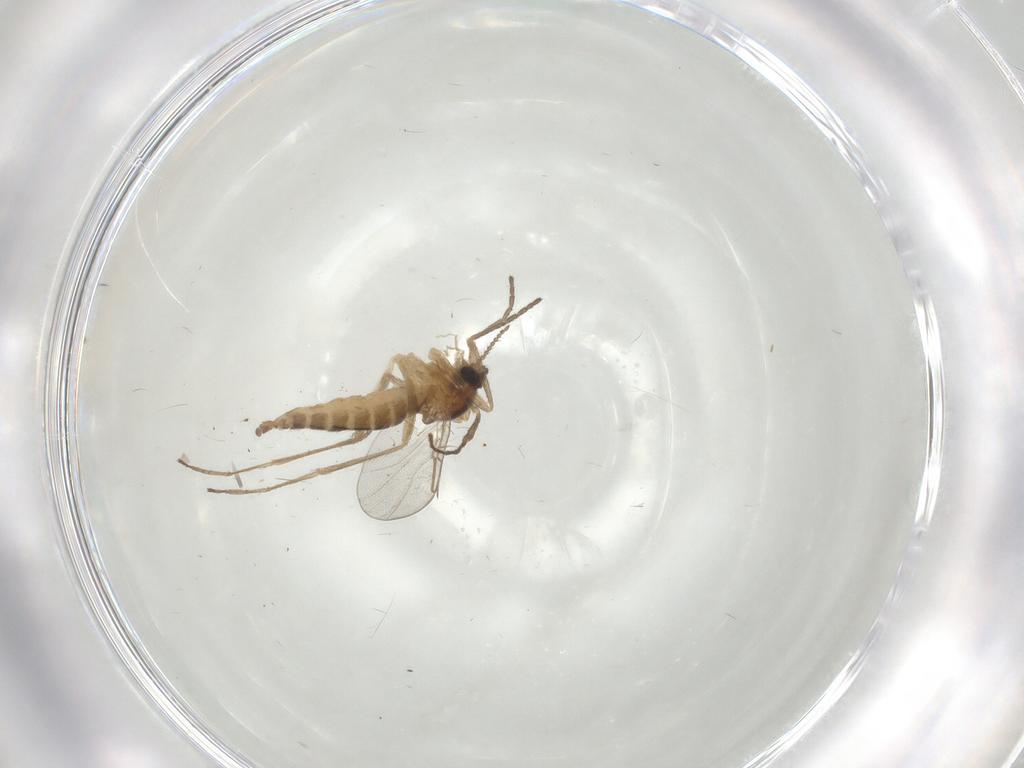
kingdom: Animalia
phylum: Arthropoda
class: Insecta
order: Diptera
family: Cecidomyiidae
